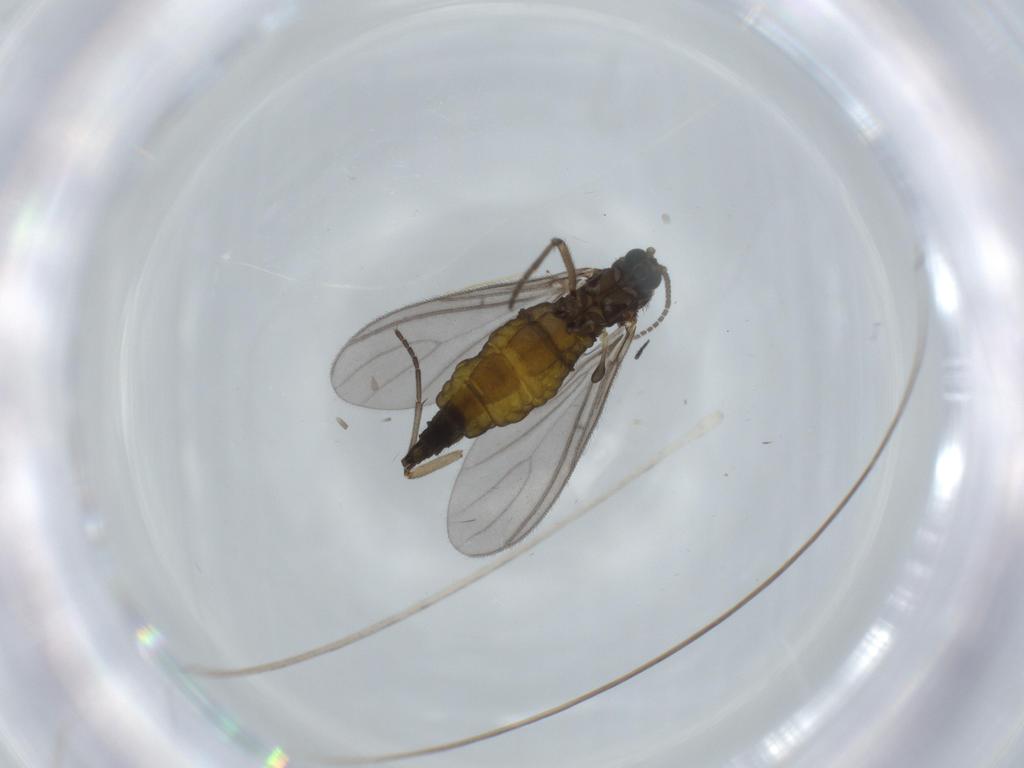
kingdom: Animalia
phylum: Arthropoda
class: Insecta
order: Diptera
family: Sciaridae
